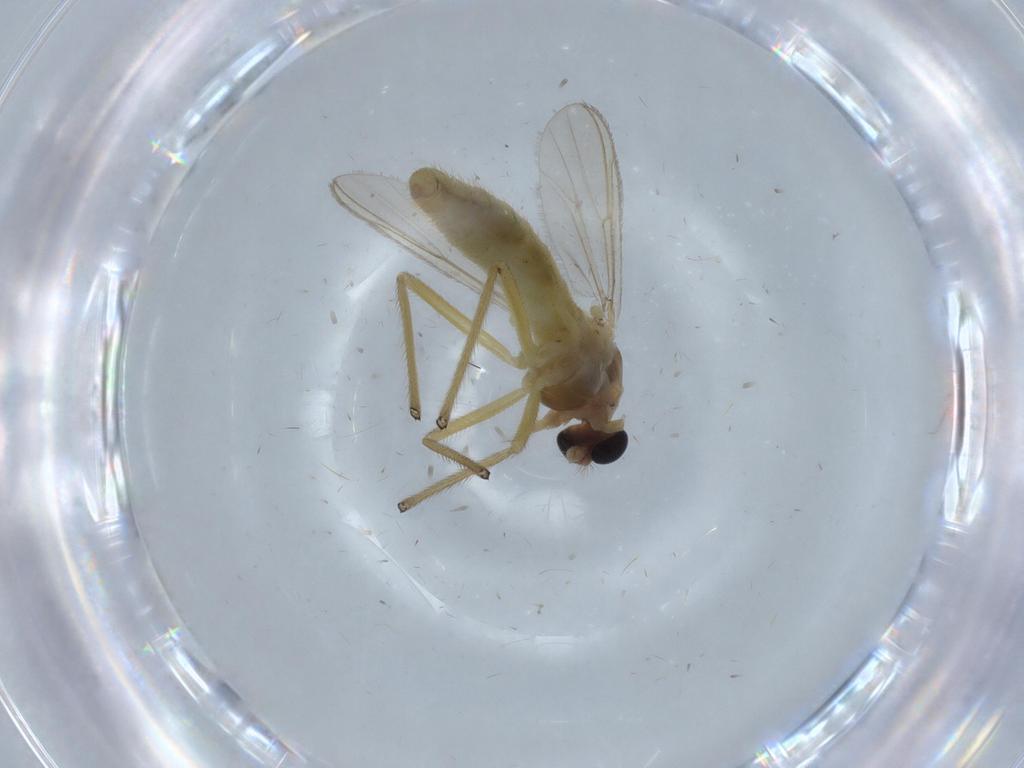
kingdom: Animalia
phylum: Arthropoda
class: Insecta
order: Diptera
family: Chironomidae
